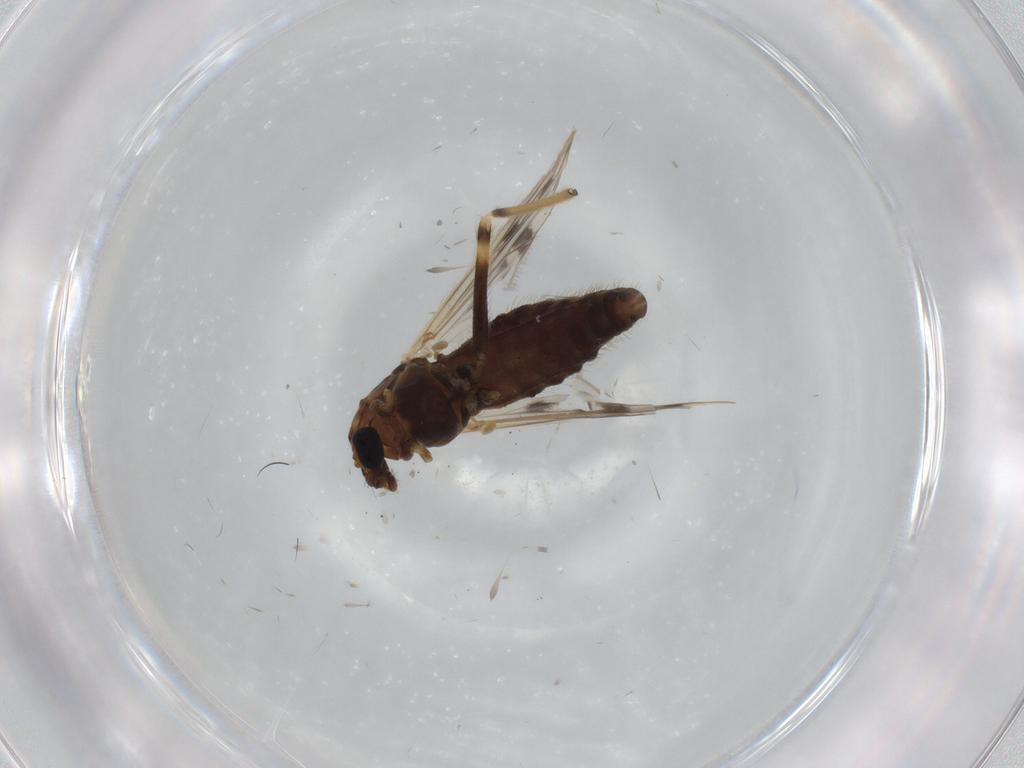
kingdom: Animalia
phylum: Arthropoda
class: Insecta
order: Diptera
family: Chironomidae
